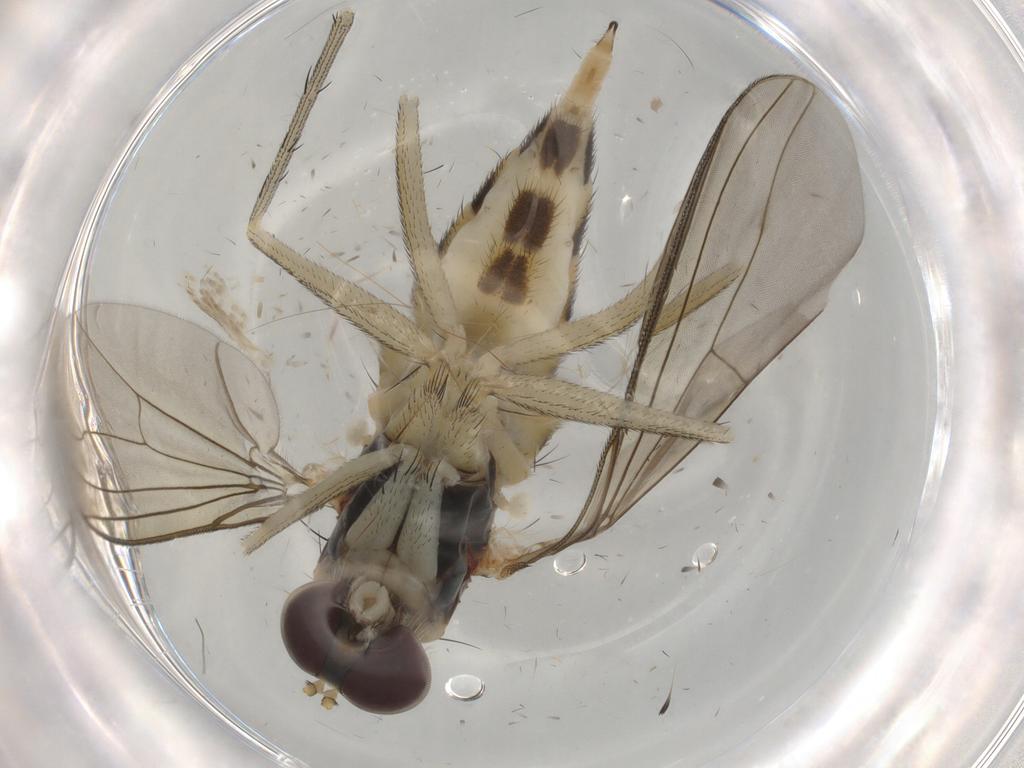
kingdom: Animalia
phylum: Arthropoda
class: Insecta
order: Diptera
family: Dolichopodidae
